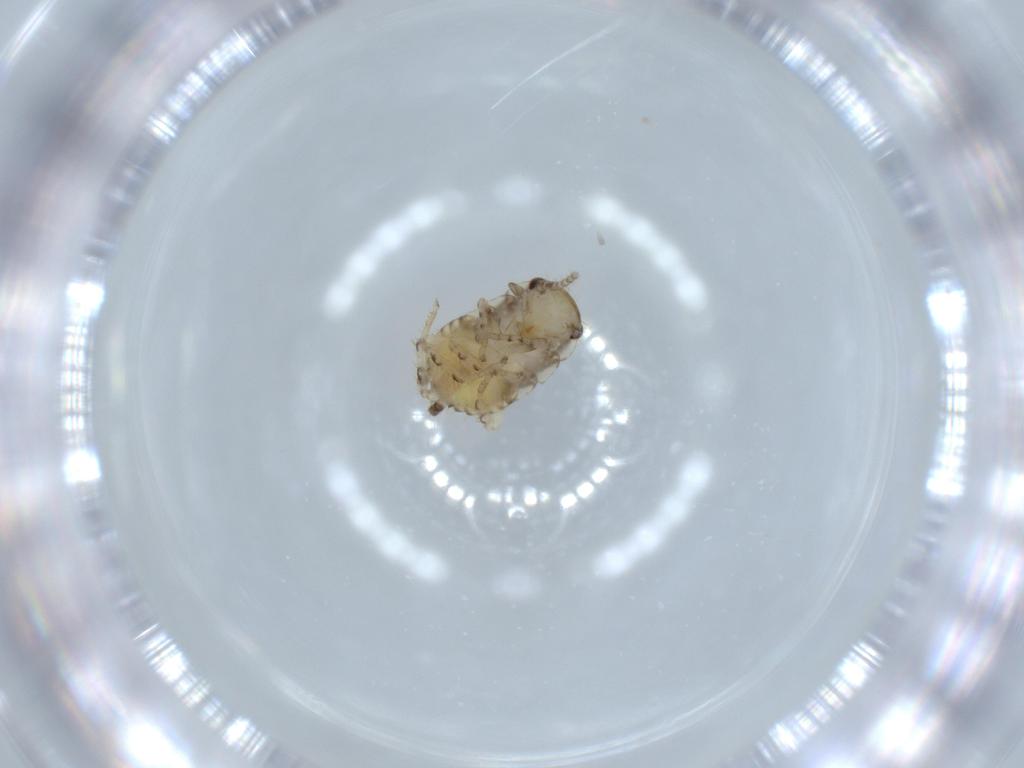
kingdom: Animalia
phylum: Arthropoda
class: Insecta
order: Blattodea
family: Ectobiidae
